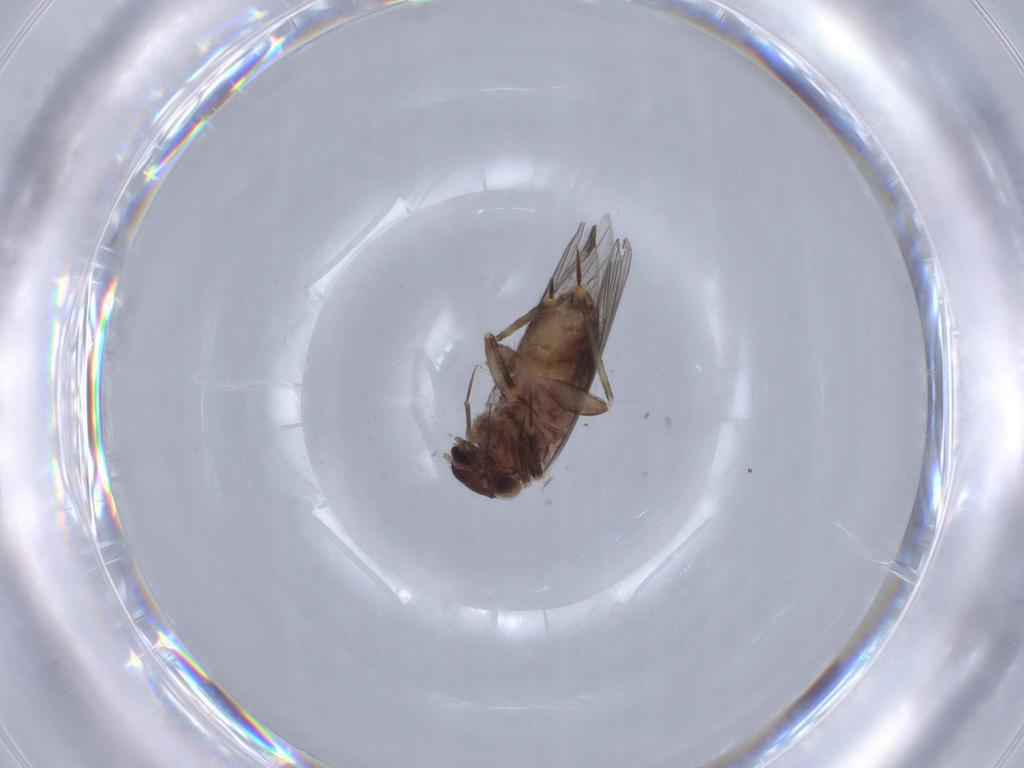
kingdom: Animalia
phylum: Arthropoda
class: Insecta
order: Psocodea
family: Lepidopsocidae
